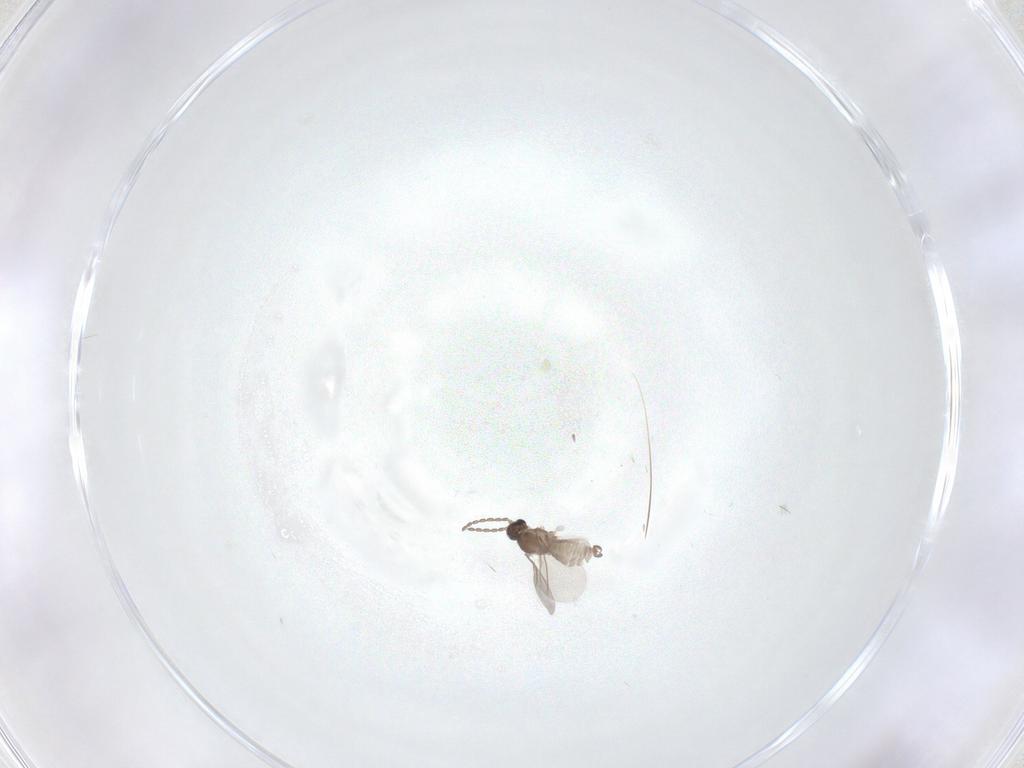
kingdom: Animalia
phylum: Arthropoda
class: Insecta
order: Diptera
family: Cecidomyiidae
